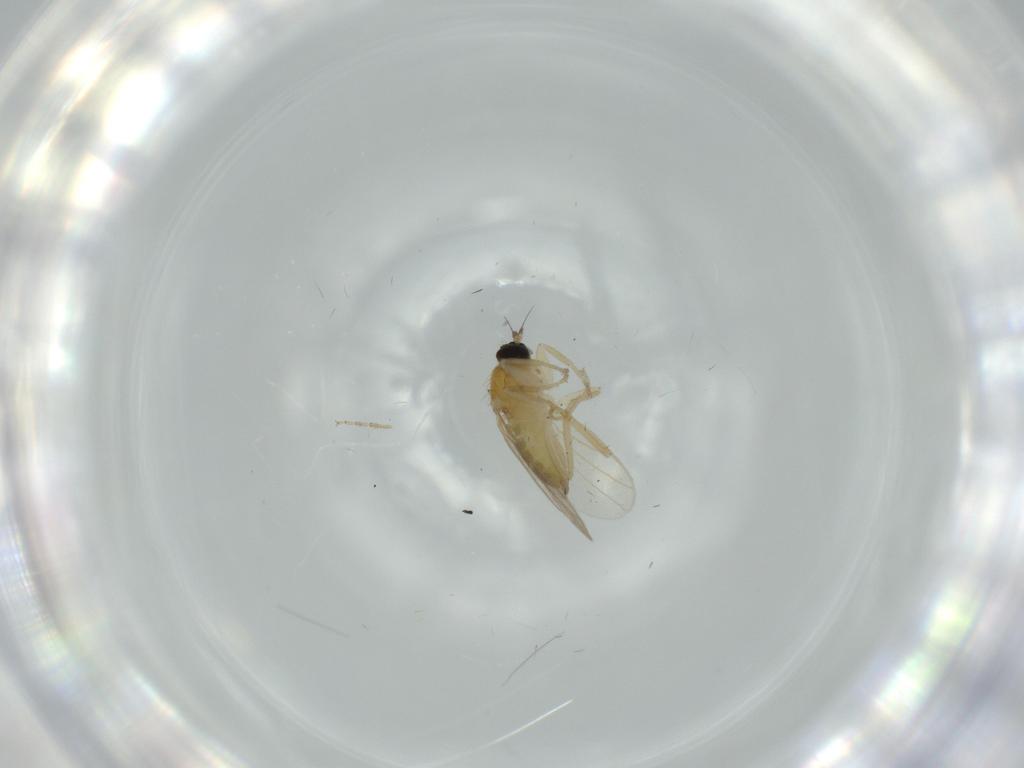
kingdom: Animalia
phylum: Arthropoda
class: Insecta
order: Diptera
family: Hybotidae
